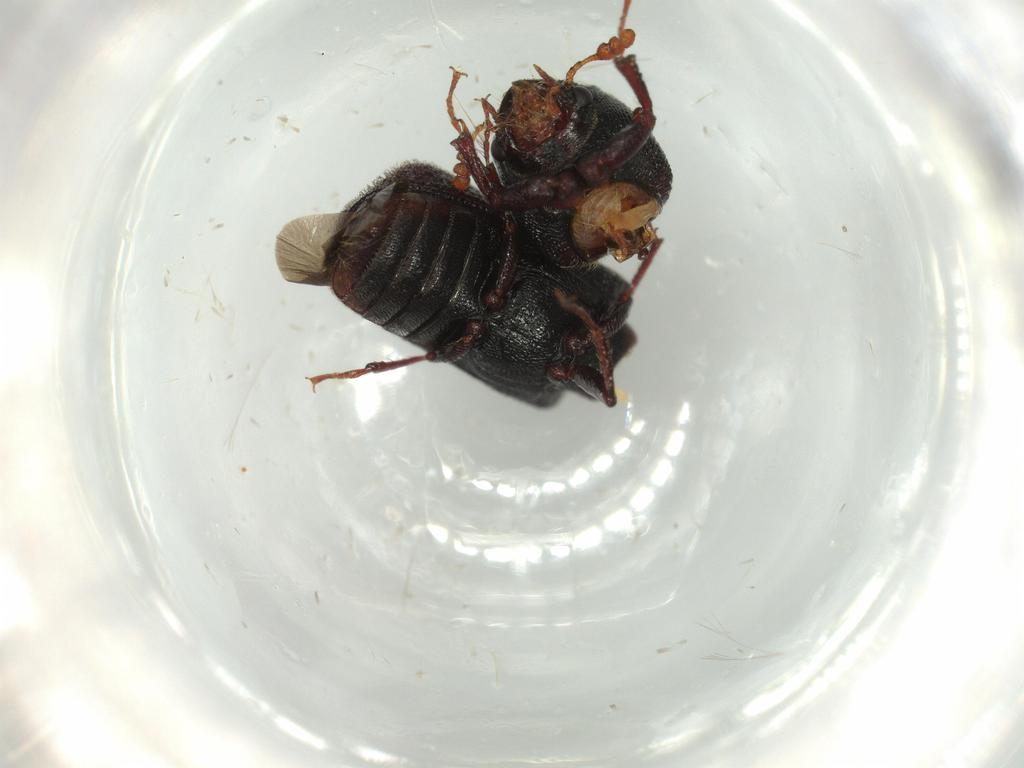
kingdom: Animalia
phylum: Arthropoda
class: Insecta
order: Coleoptera
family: Bostrichidae
